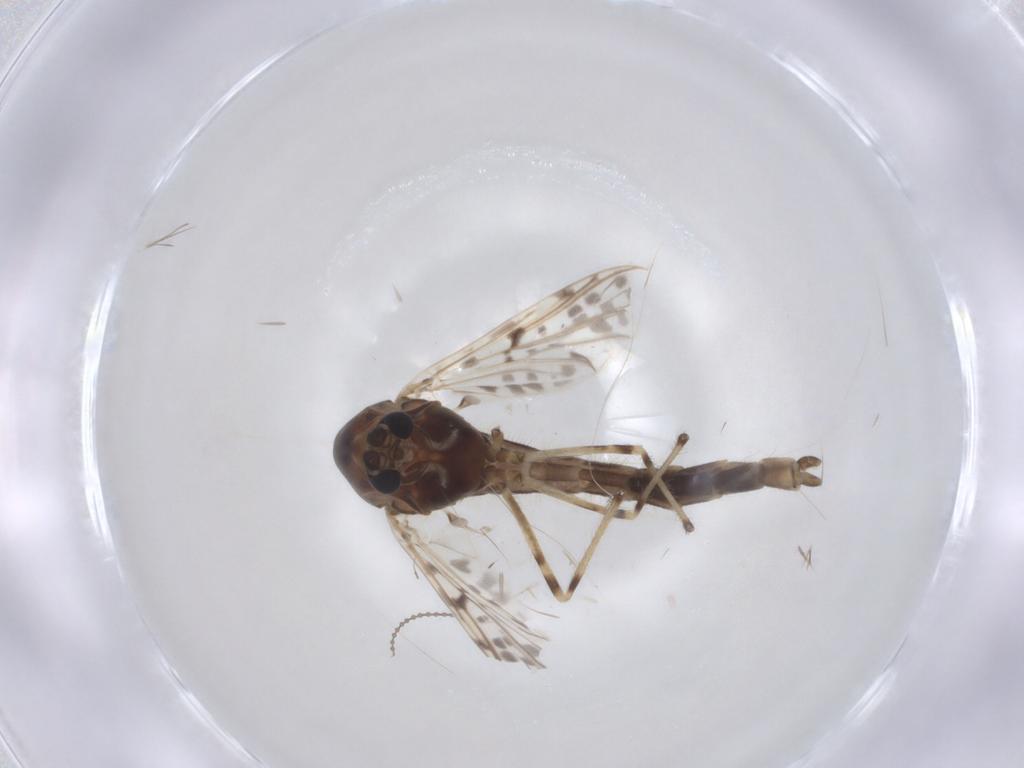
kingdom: Animalia
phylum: Arthropoda
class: Insecta
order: Diptera
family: Chironomidae
